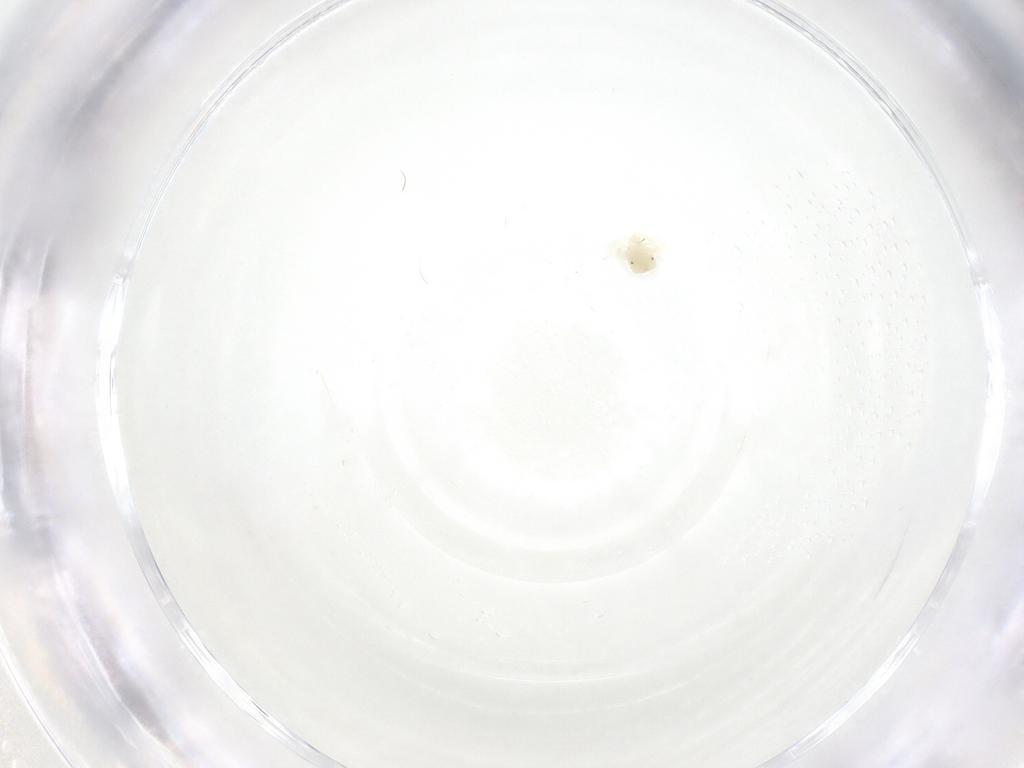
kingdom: Animalia
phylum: Arthropoda
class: Arachnida
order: Trombidiformes
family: Anystidae
